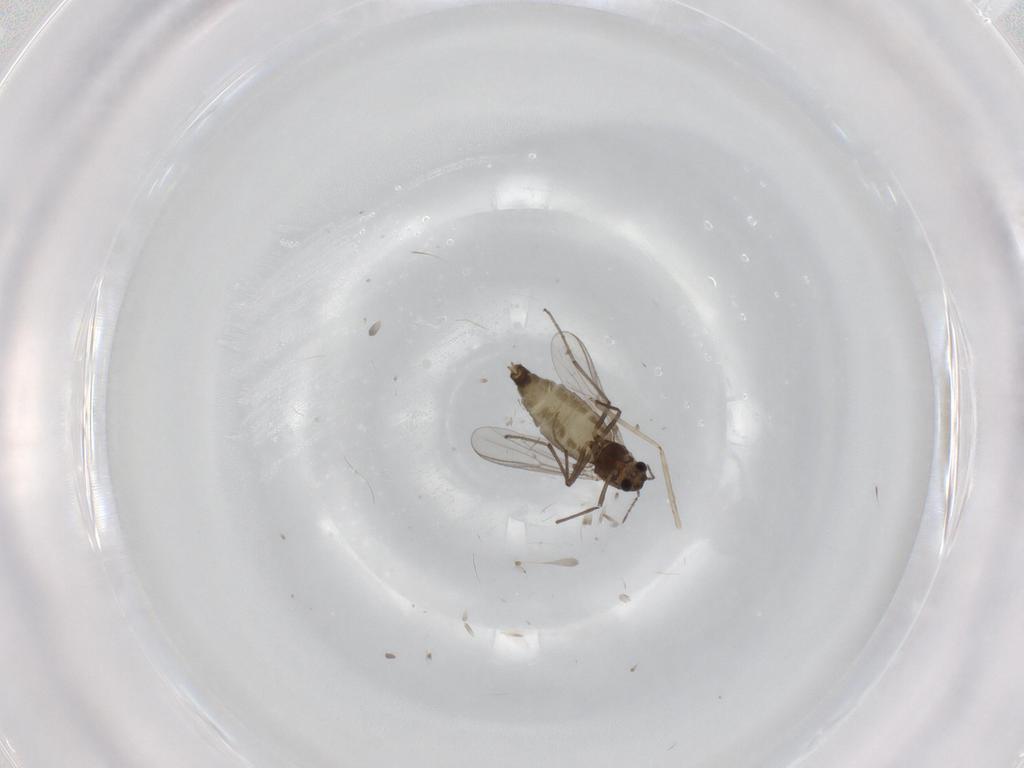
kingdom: Animalia
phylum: Arthropoda
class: Insecta
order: Diptera
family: Chironomidae
